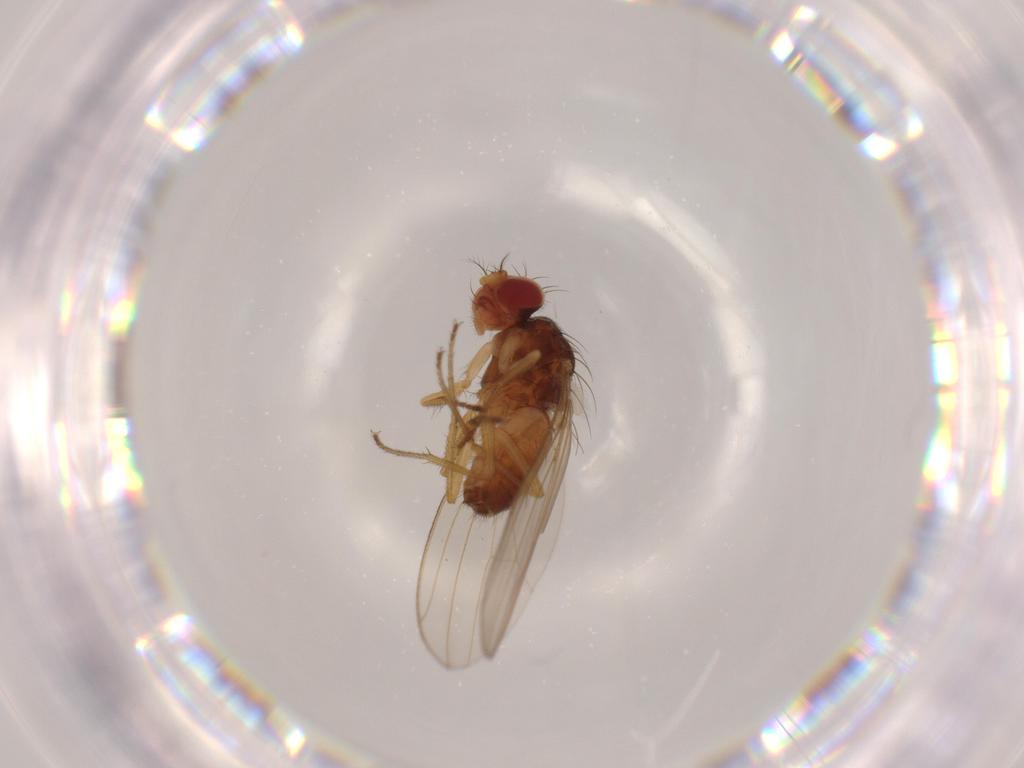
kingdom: Animalia
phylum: Arthropoda
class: Insecta
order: Diptera
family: Drosophilidae
